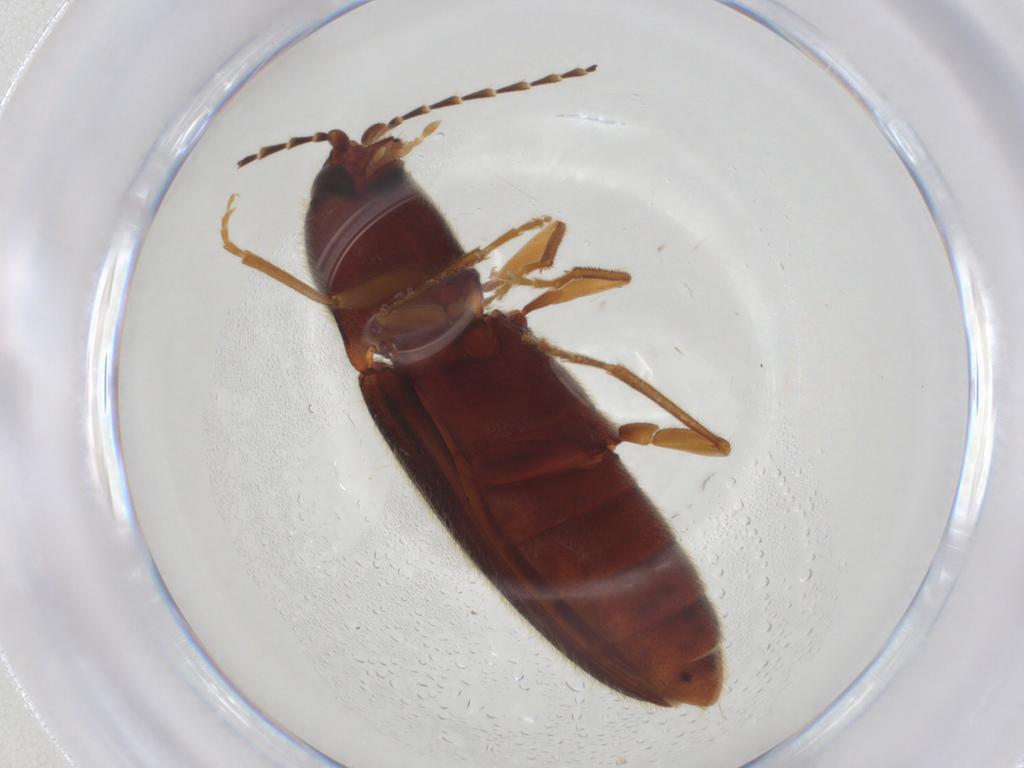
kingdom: Animalia
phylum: Arthropoda
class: Insecta
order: Coleoptera
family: Elateridae
